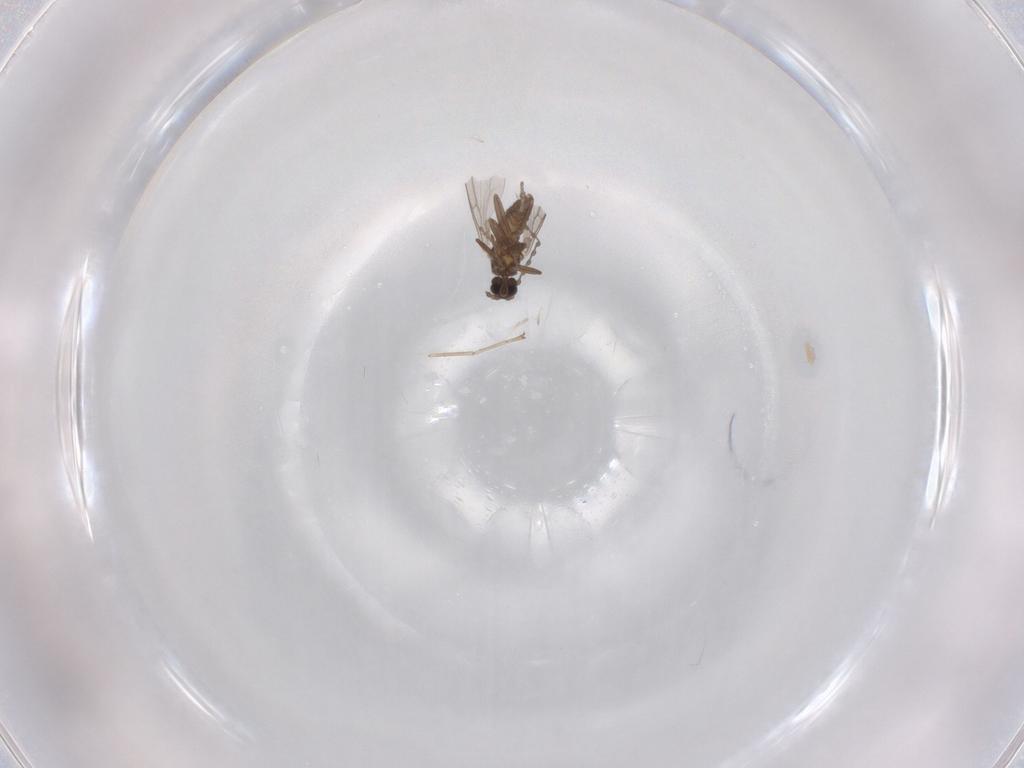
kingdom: Animalia
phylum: Arthropoda
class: Insecta
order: Diptera
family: Cecidomyiidae
